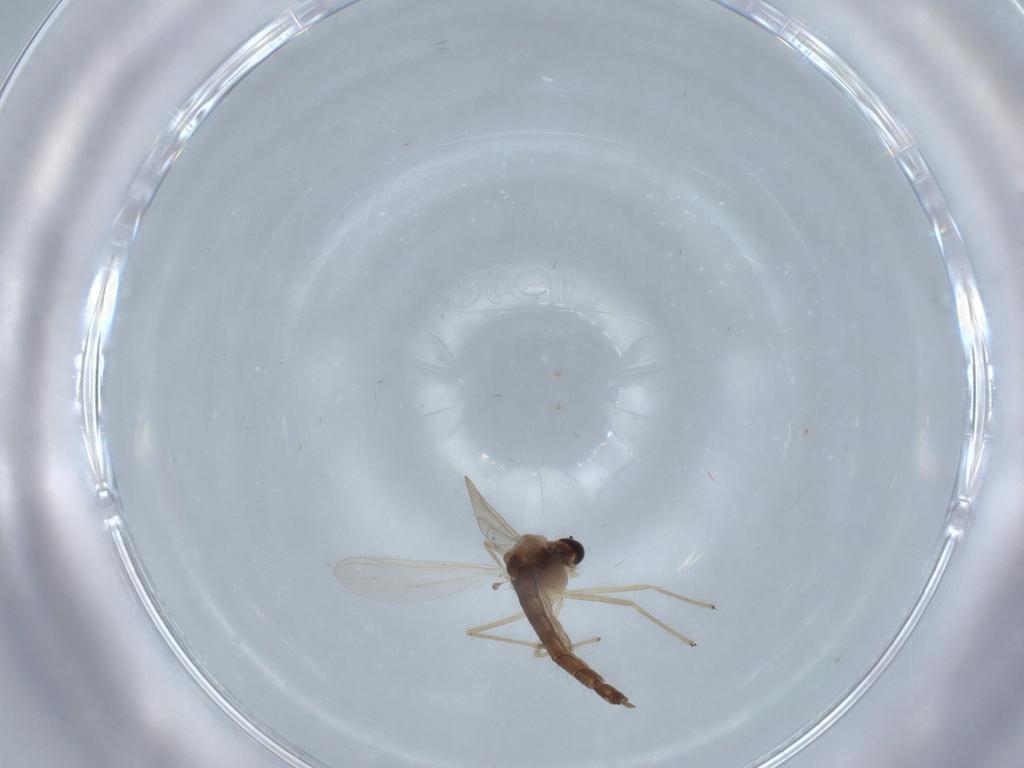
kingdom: Animalia
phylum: Arthropoda
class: Insecta
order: Diptera
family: Chironomidae
